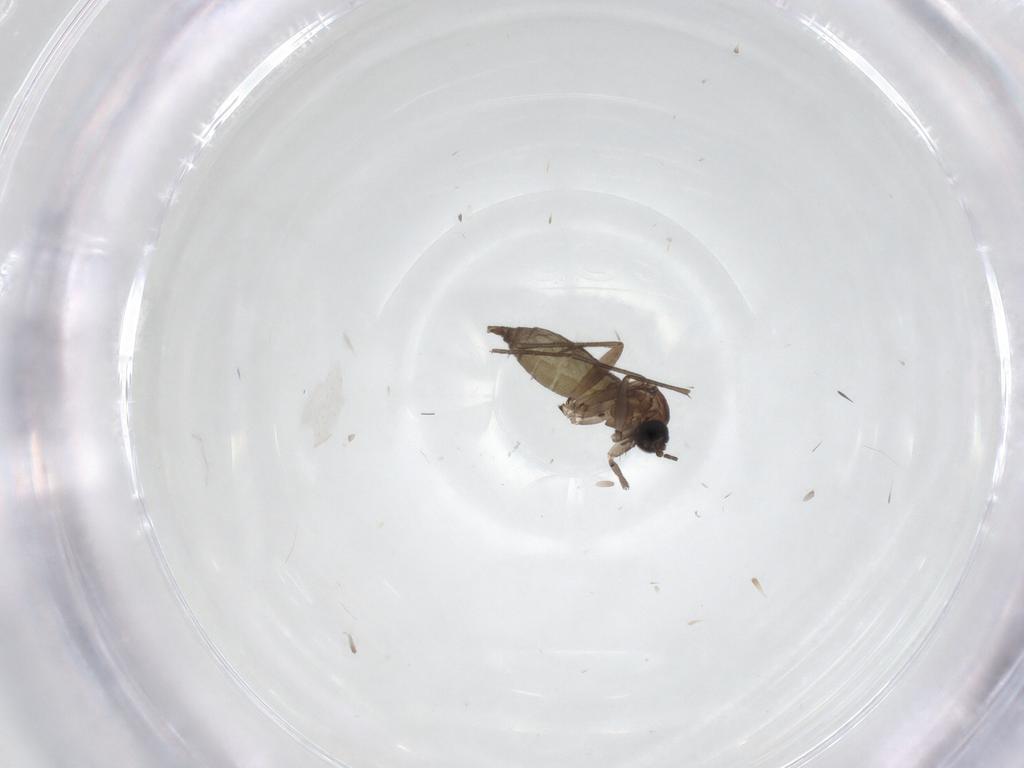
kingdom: Animalia
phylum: Arthropoda
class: Insecta
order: Diptera
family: Sciaridae
